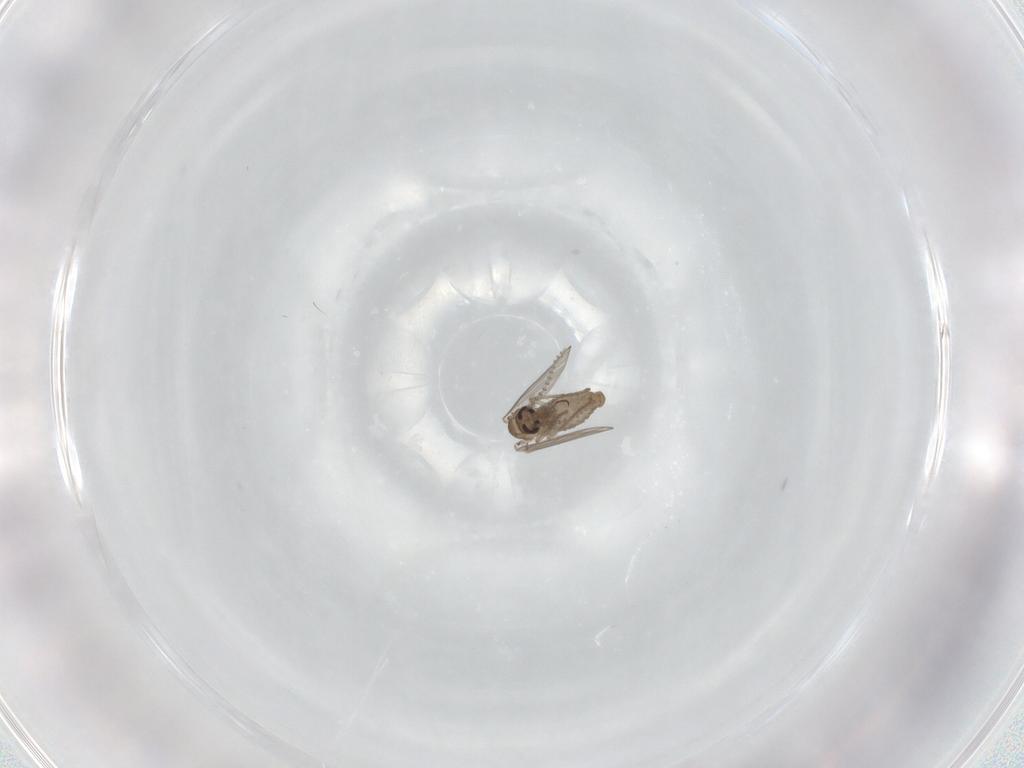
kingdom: Animalia
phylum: Arthropoda
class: Insecta
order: Diptera
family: Psychodidae
